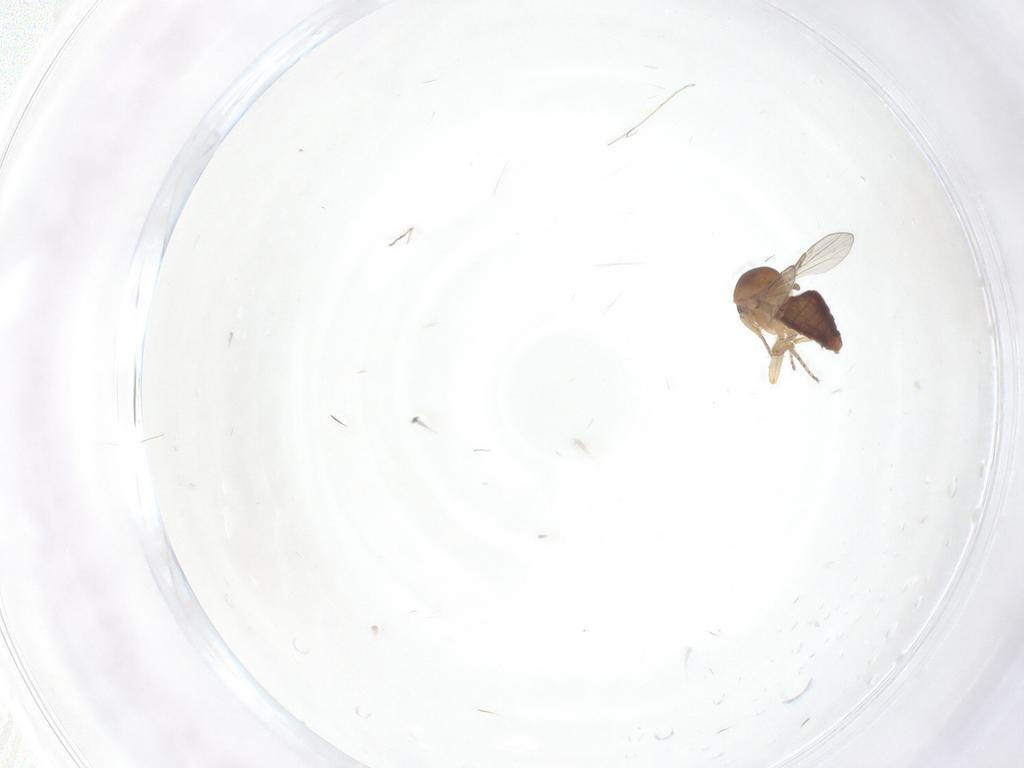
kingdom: Animalia
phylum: Arthropoda
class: Insecta
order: Diptera
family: Ceratopogonidae
